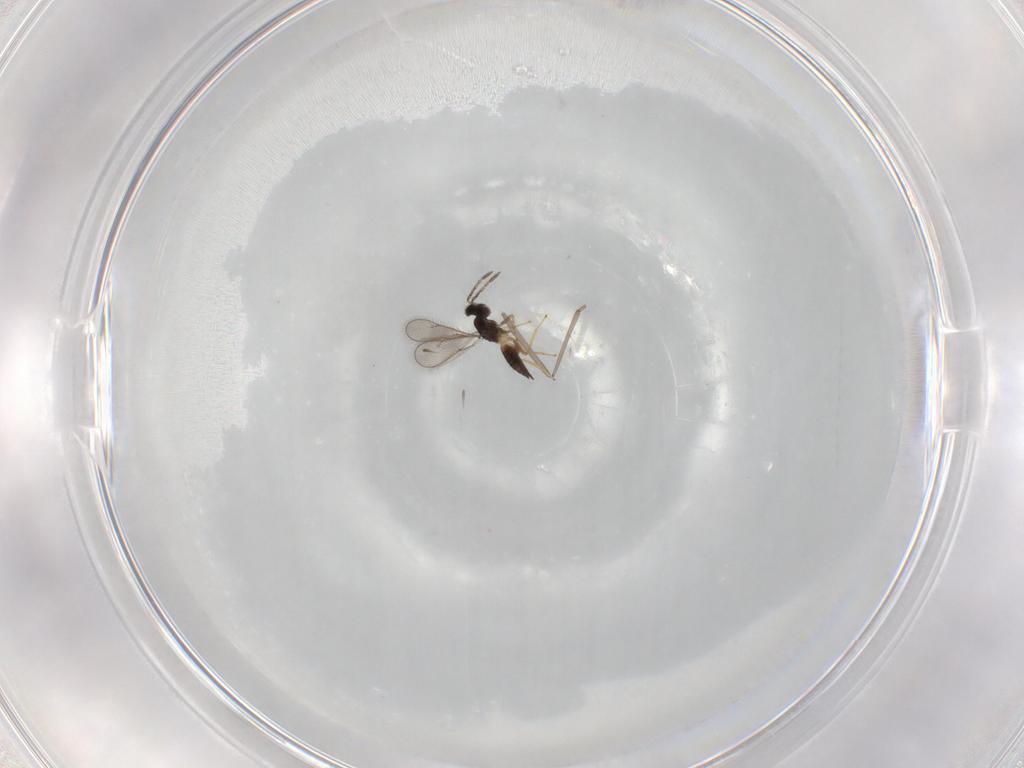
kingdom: Animalia
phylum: Arthropoda
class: Insecta
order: Hymenoptera
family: Eulophidae
